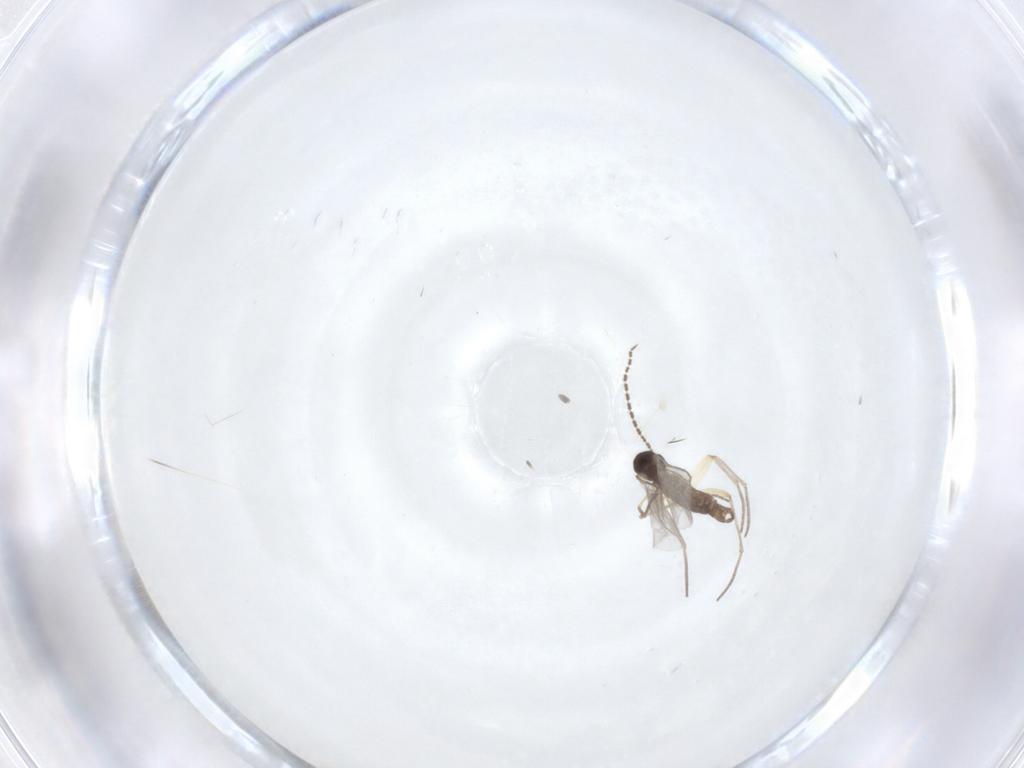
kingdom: Animalia
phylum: Arthropoda
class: Insecta
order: Diptera
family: Sciaridae
